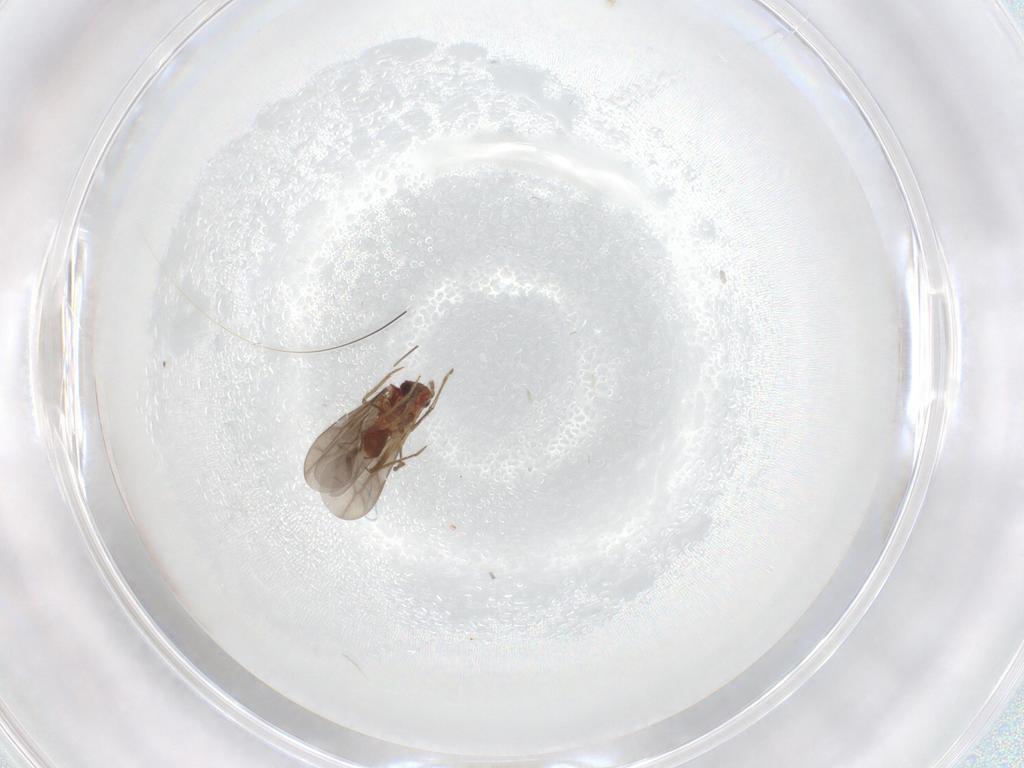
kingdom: Animalia
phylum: Arthropoda
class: Insecta
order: Hemiptera
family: Ceratocombidae
